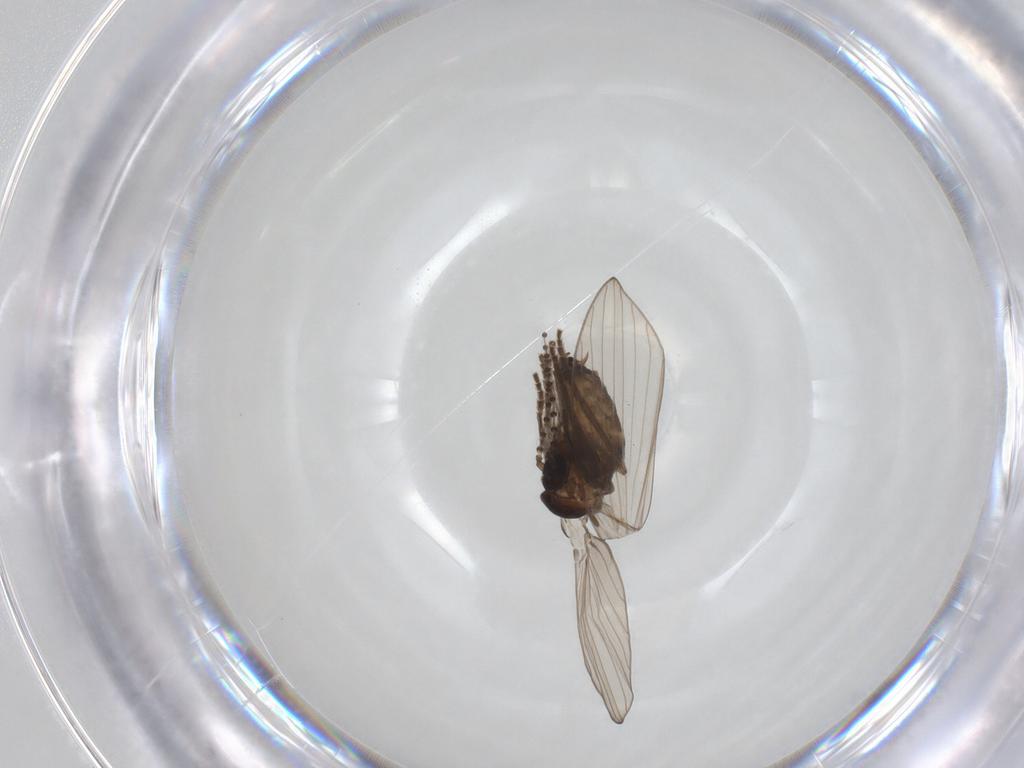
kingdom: Animalia
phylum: Arthropoda
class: Insecta
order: Diptera
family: Psychodidae
